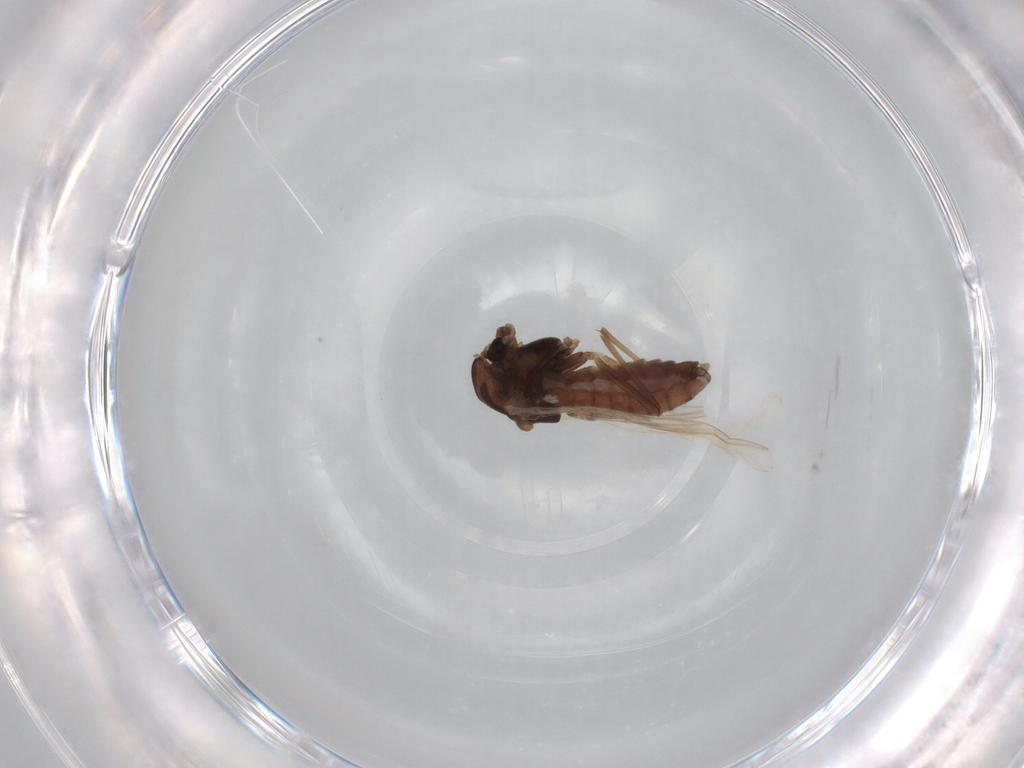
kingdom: Animalia
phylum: Arthropoda
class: Insecta
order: Diptera
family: Chironomidae
